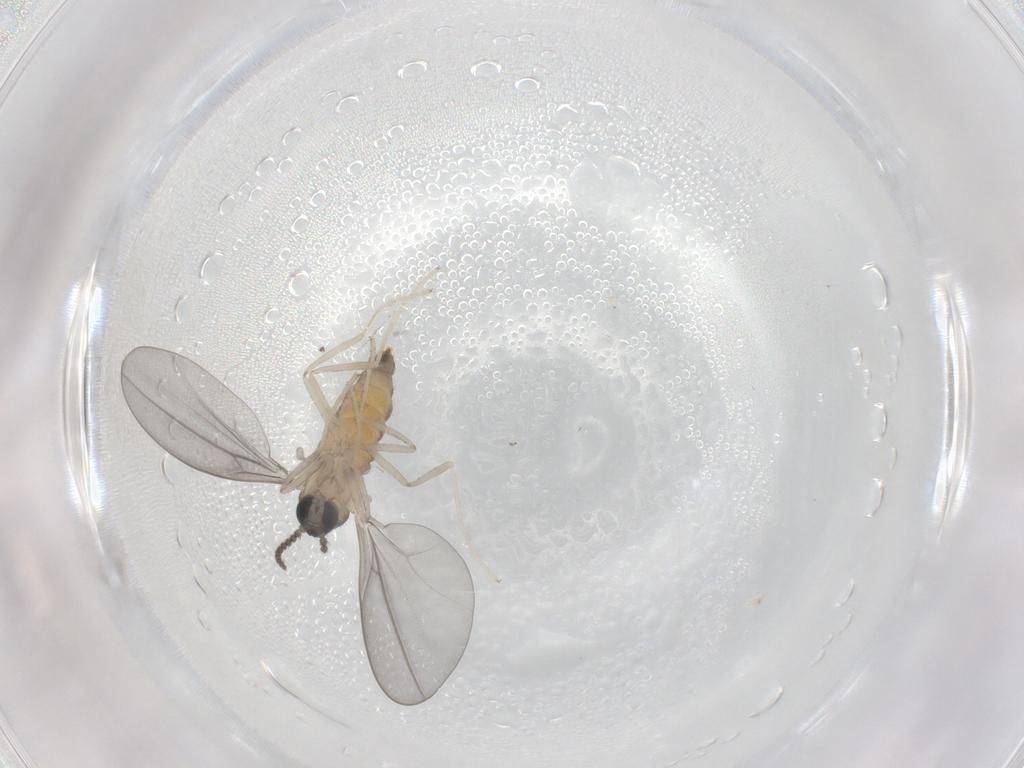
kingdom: Animalia
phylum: Arthropoda
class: Insecta
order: Diptera
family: Cecidomyiidae
